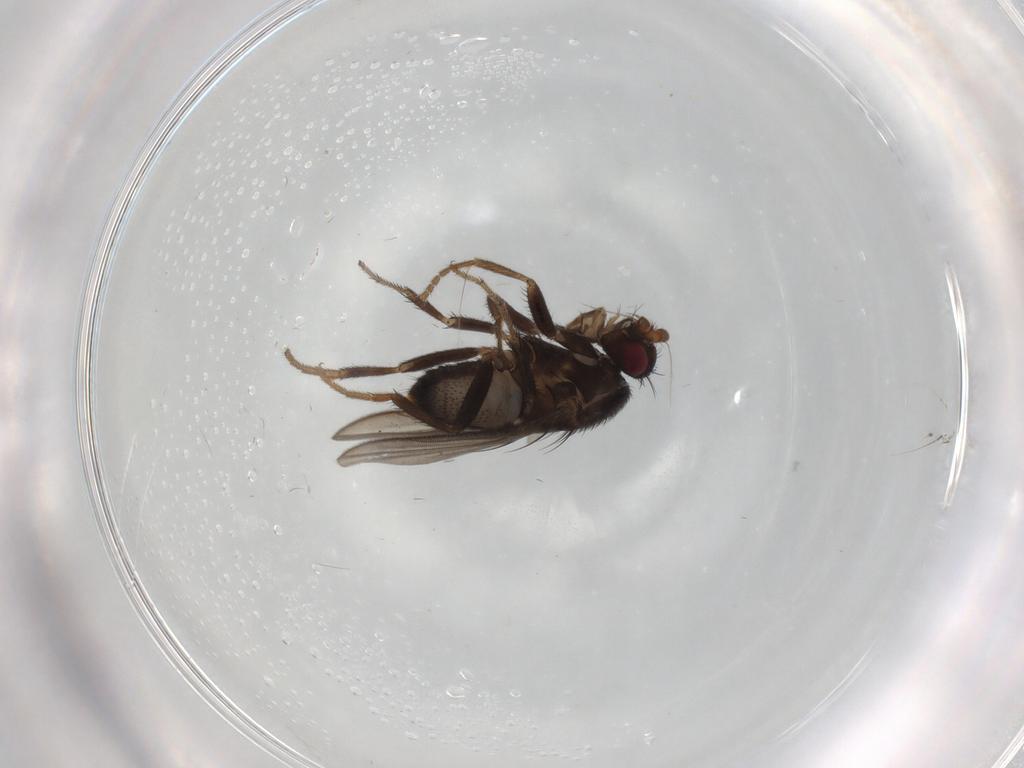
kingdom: Animalia
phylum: Arthropoda
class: Insecta
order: Diptera
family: Sphaeroceridae
